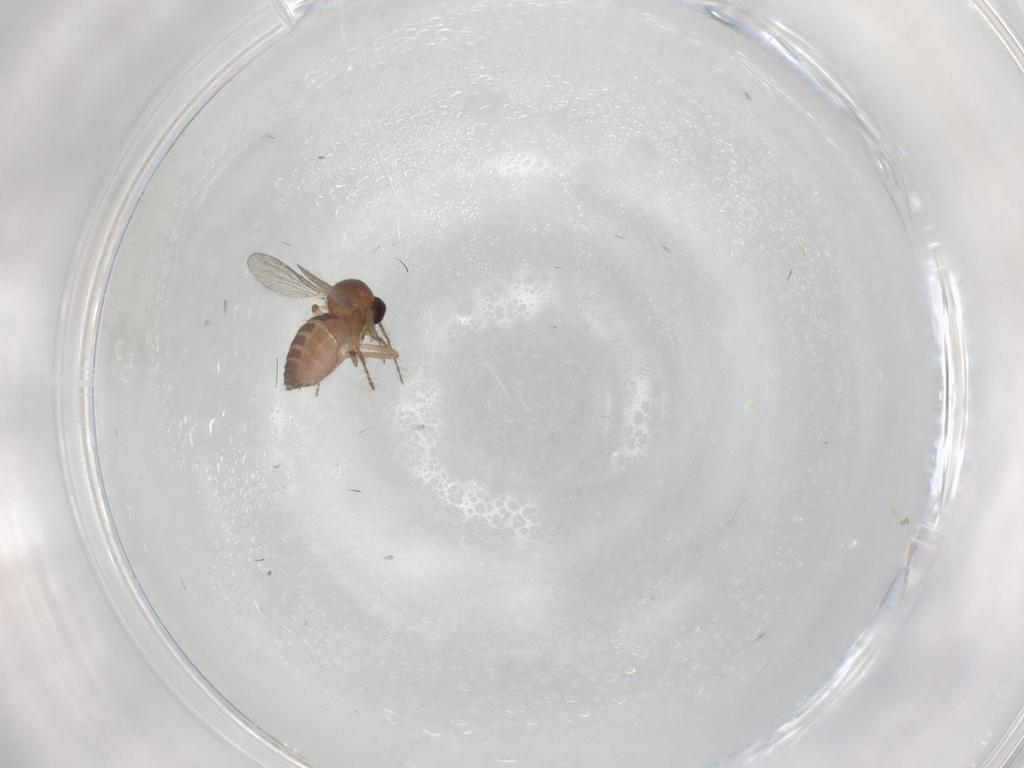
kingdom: Animalia
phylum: Arthropoda
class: Insecta
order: Diptera
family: Ceratopogonidae
